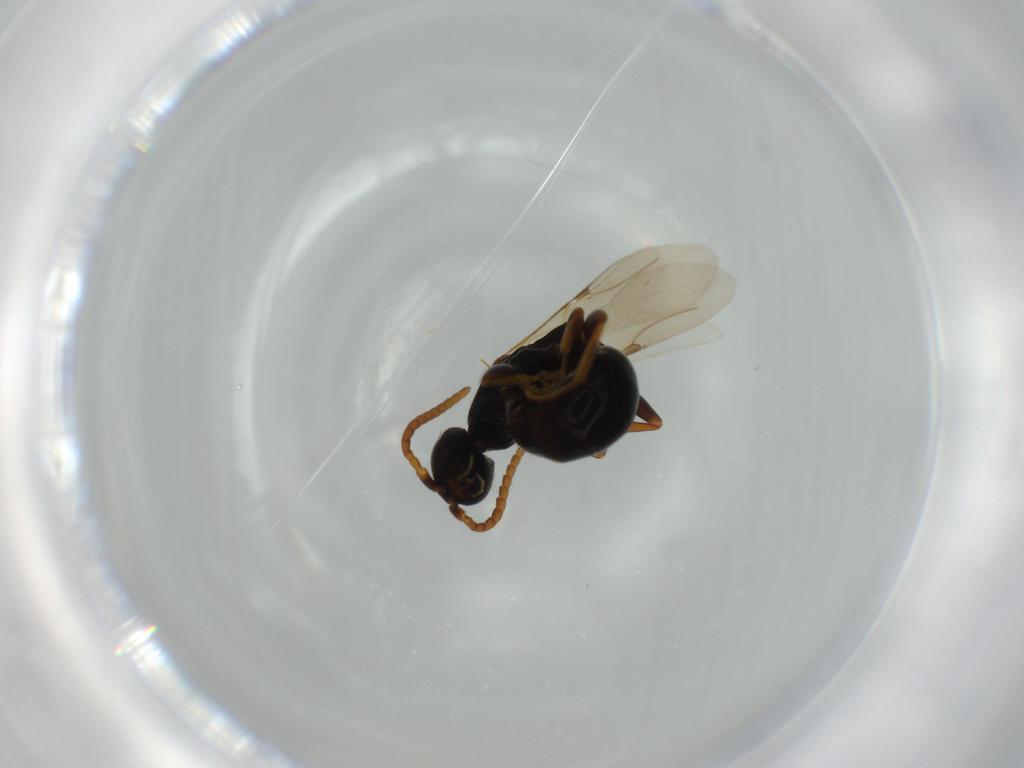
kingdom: Animalia
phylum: Arthropoda
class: Insecta
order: Hymenoptera
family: Bethylidae
